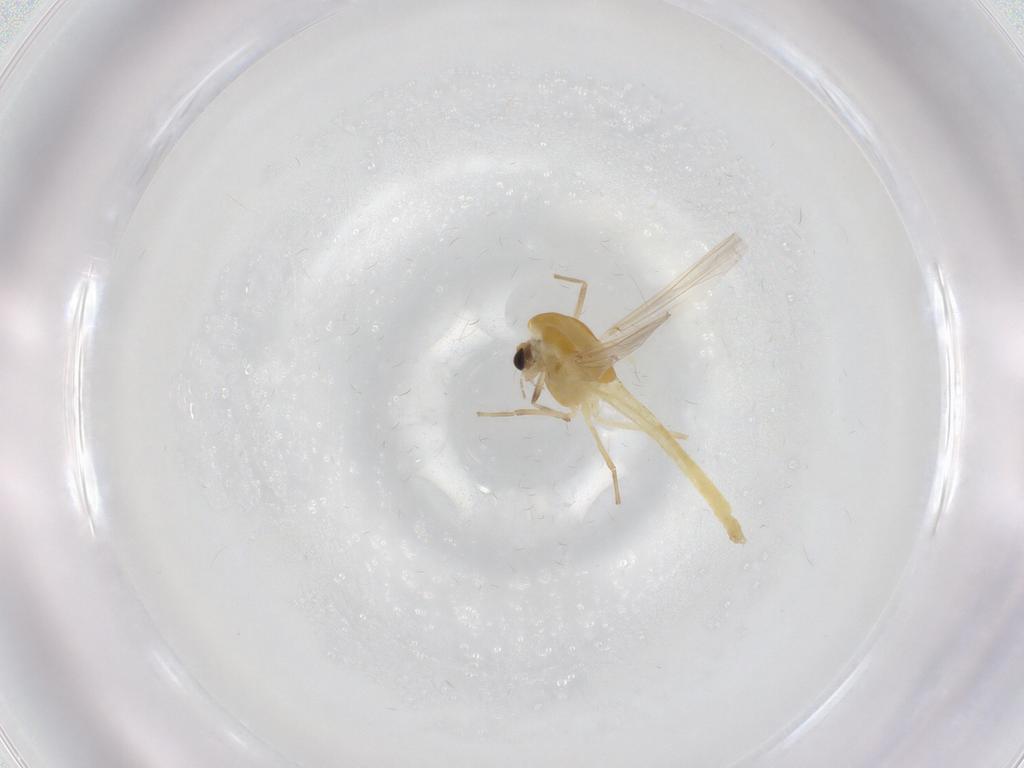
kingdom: Animalia
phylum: Arthropoda
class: Insecta
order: Diptera
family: Chironomidae
